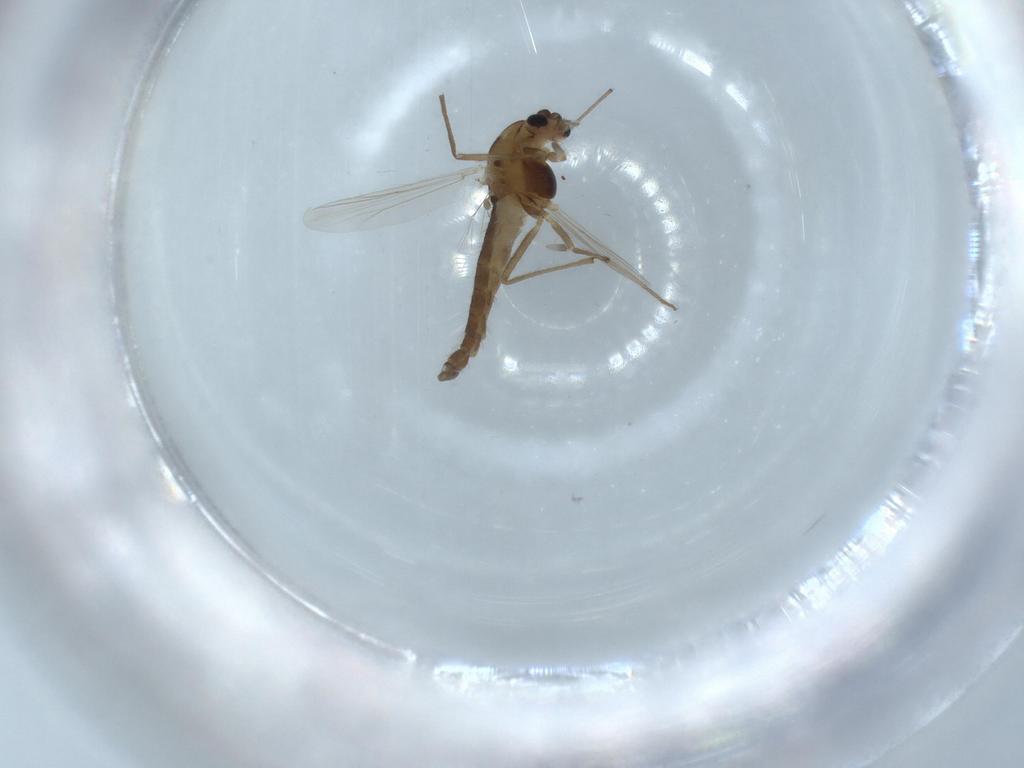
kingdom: Animalia
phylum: Arthropoda
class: Insecta
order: Diptera
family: Chironomidae
